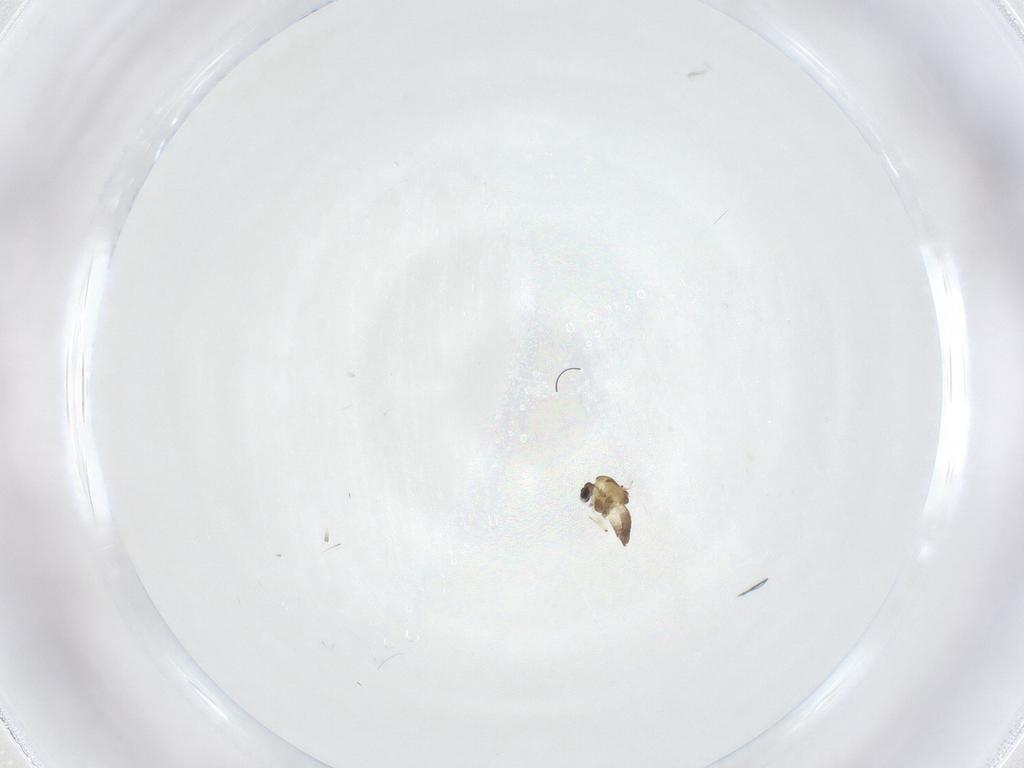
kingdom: Animalia
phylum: Arthropoda
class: Insecta
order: Diptera
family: Chironomidae
